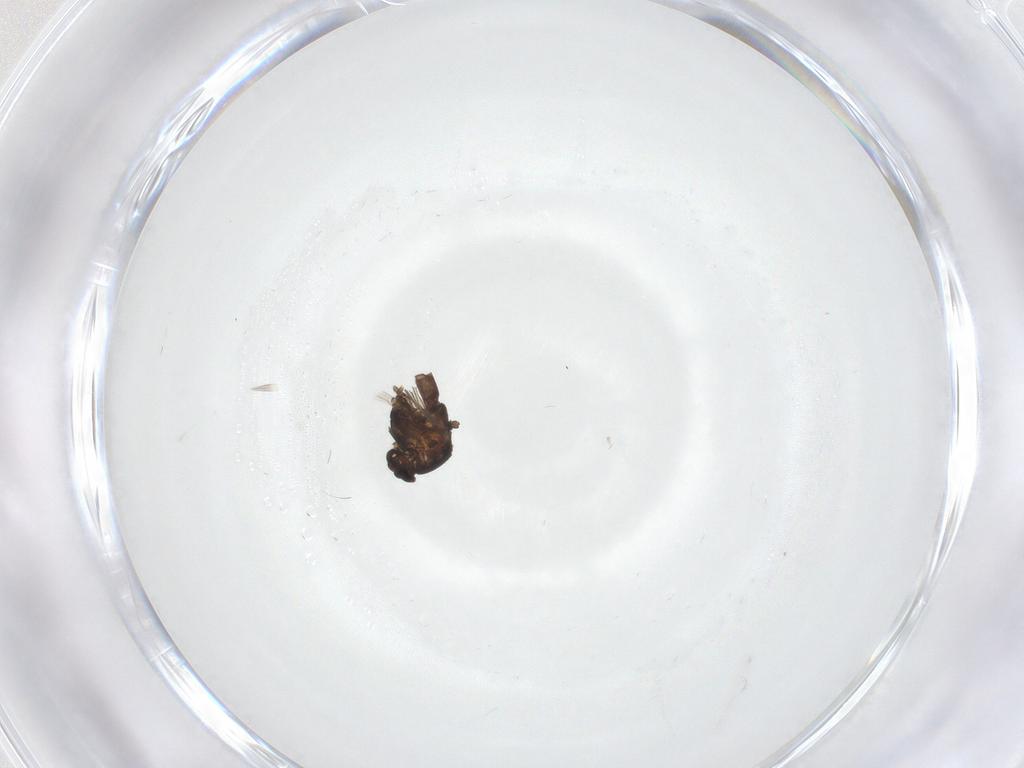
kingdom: Animalia
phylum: Arthropoda
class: Insecta
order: Diptera
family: Chironomidae
